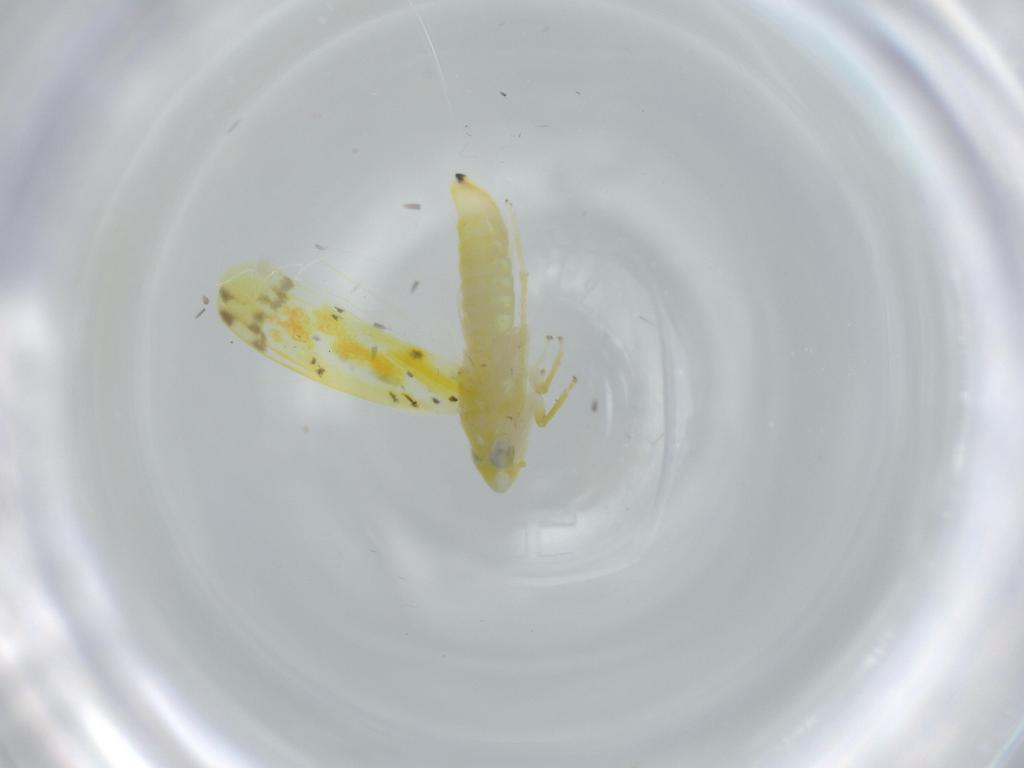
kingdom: Animalia
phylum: Arthropoda
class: Insecta
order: Hemiptera
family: Cicadellidae
